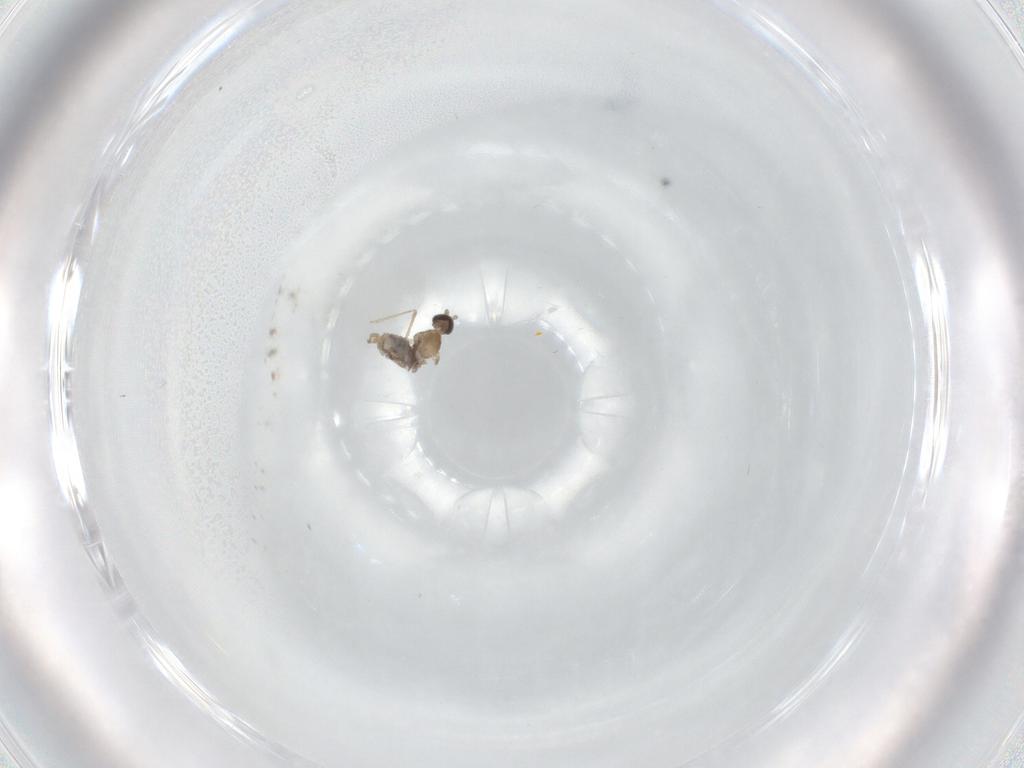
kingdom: Animalia
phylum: Arthropoda
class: Insecta
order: Diptera
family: Cecidomyiidae
